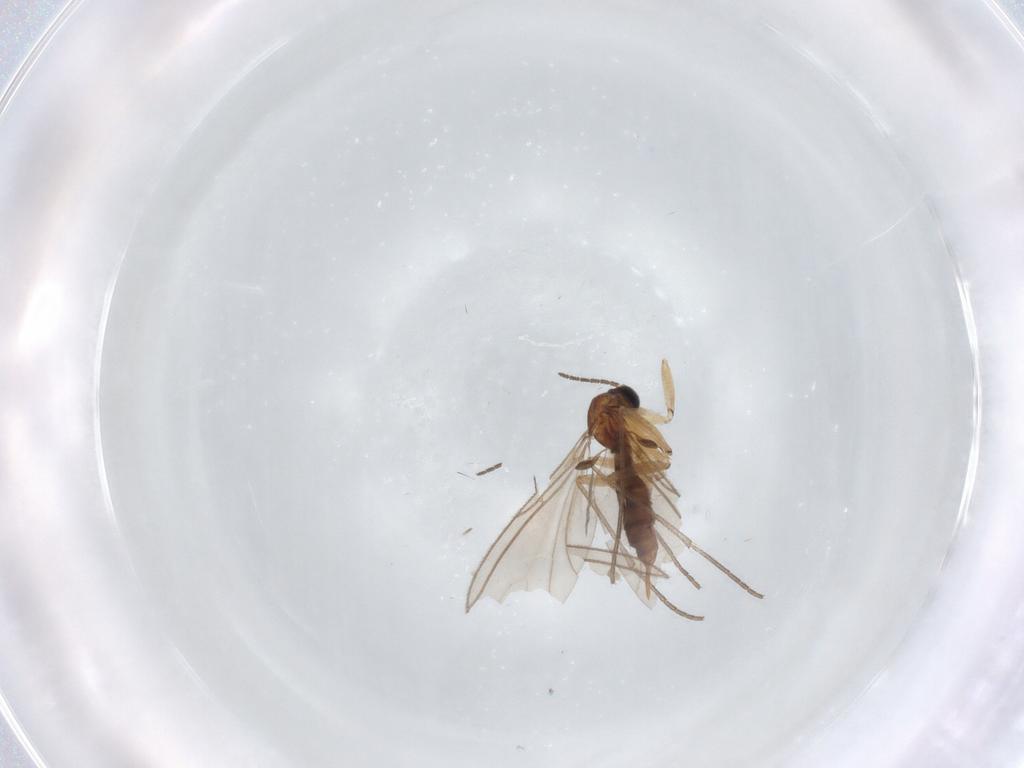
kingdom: Animalia
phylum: Arthropoda
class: Insecta
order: Diptera
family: Sciaridae
